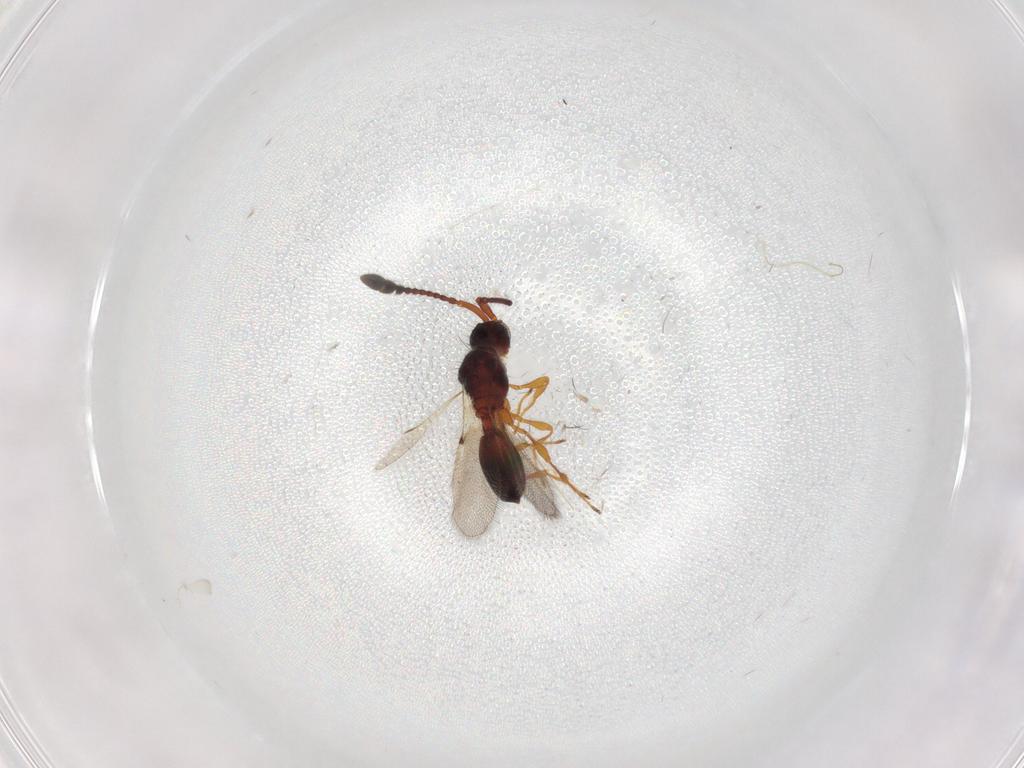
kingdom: Animalia
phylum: Arthropoda
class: Insecta
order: Hymenoptera
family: Diapriidae
